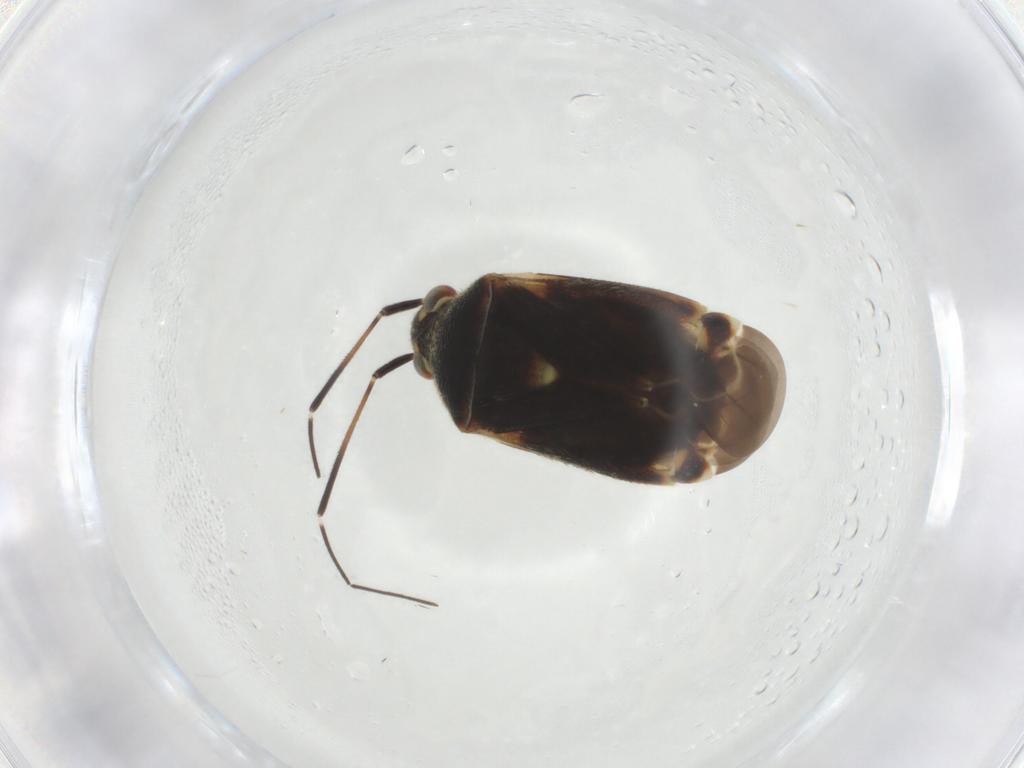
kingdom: Animalia
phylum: Arthropoda
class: Insecta
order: Hemiptera
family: Miridae
